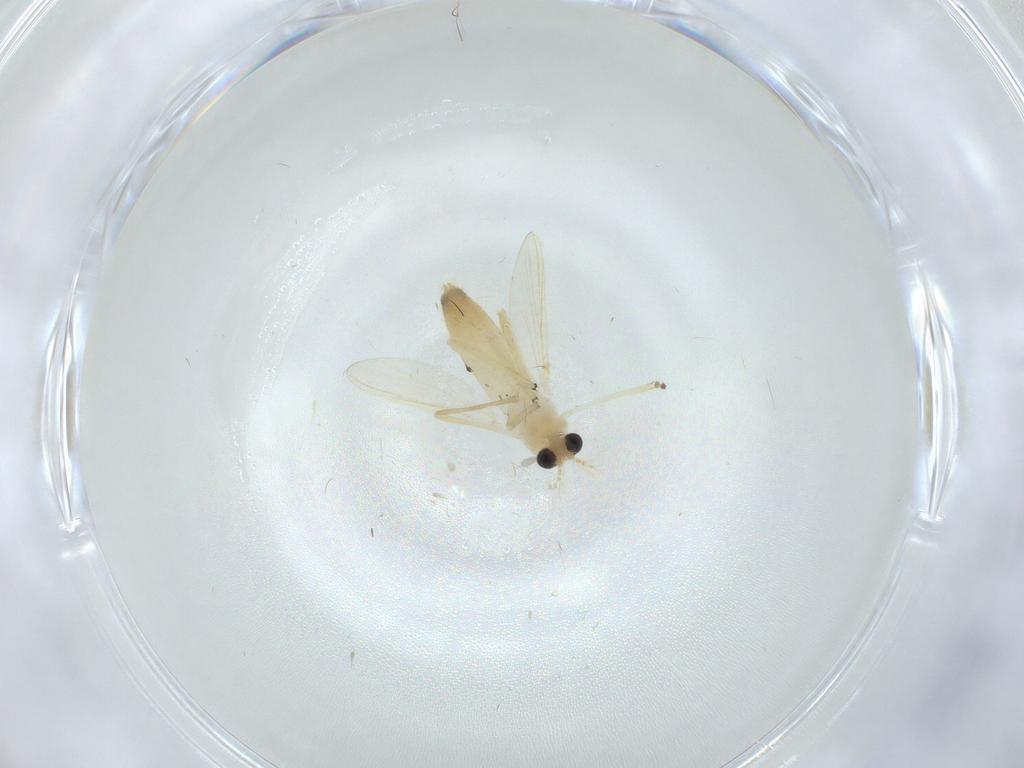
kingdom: Animalia
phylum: Arthropoda
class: Insecta
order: Diptera
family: Chironomidae
